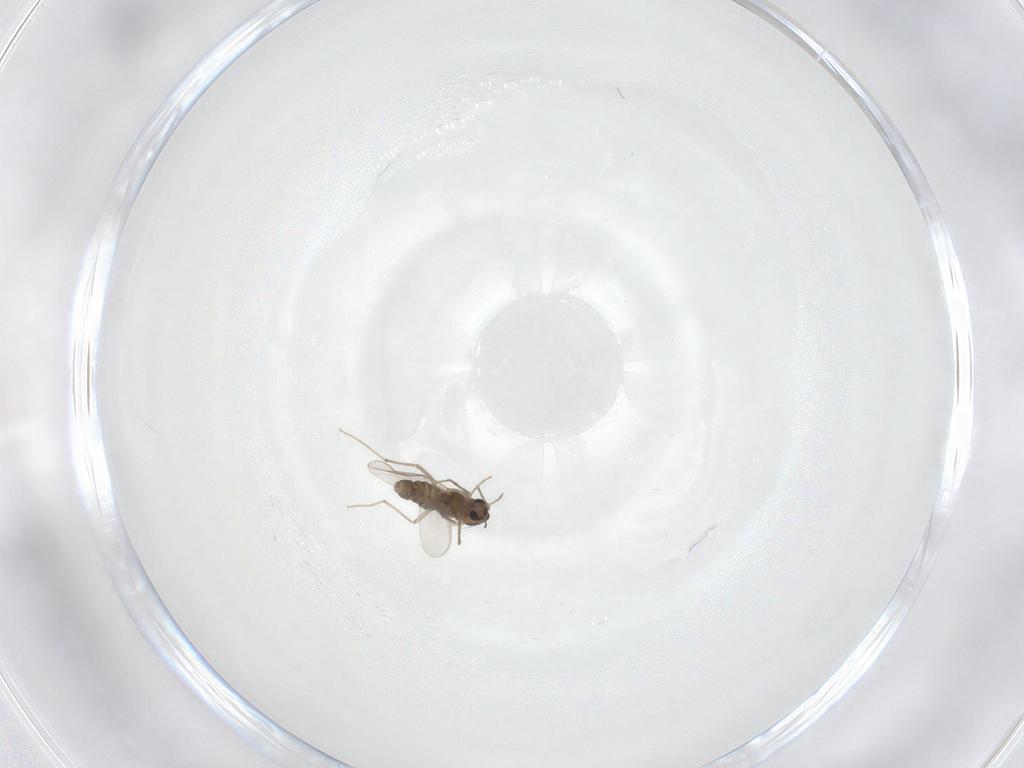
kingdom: Animalia
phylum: Arthropoda
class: Insecta
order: Diptera
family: Chironomidae
